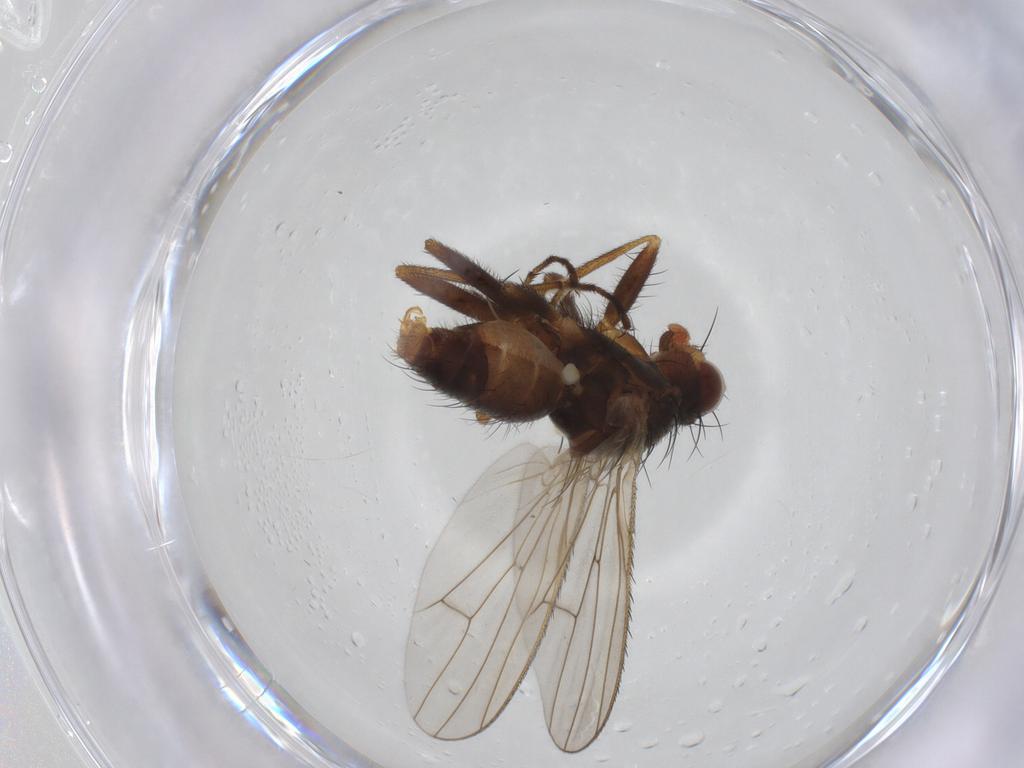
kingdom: Animalia
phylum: Arthropoda
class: Insecta
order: Diptera
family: Heleomyzidae
